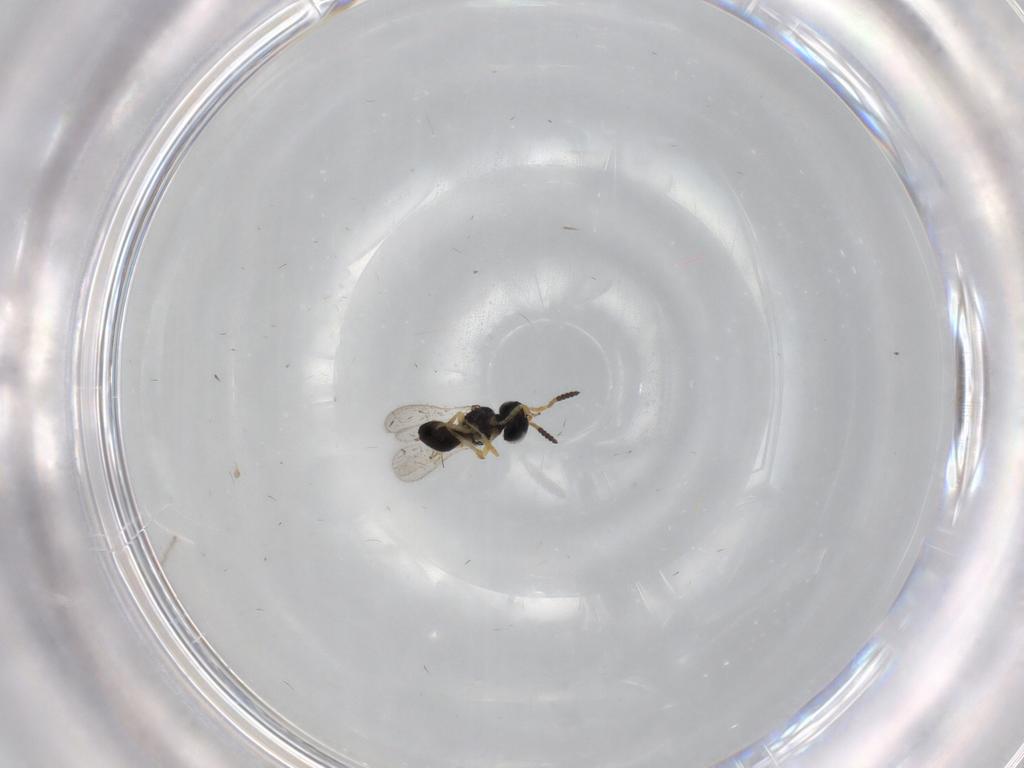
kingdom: Animalia
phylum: Arthropoda
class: Insecta
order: Hymenoptera
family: Scelionidae
